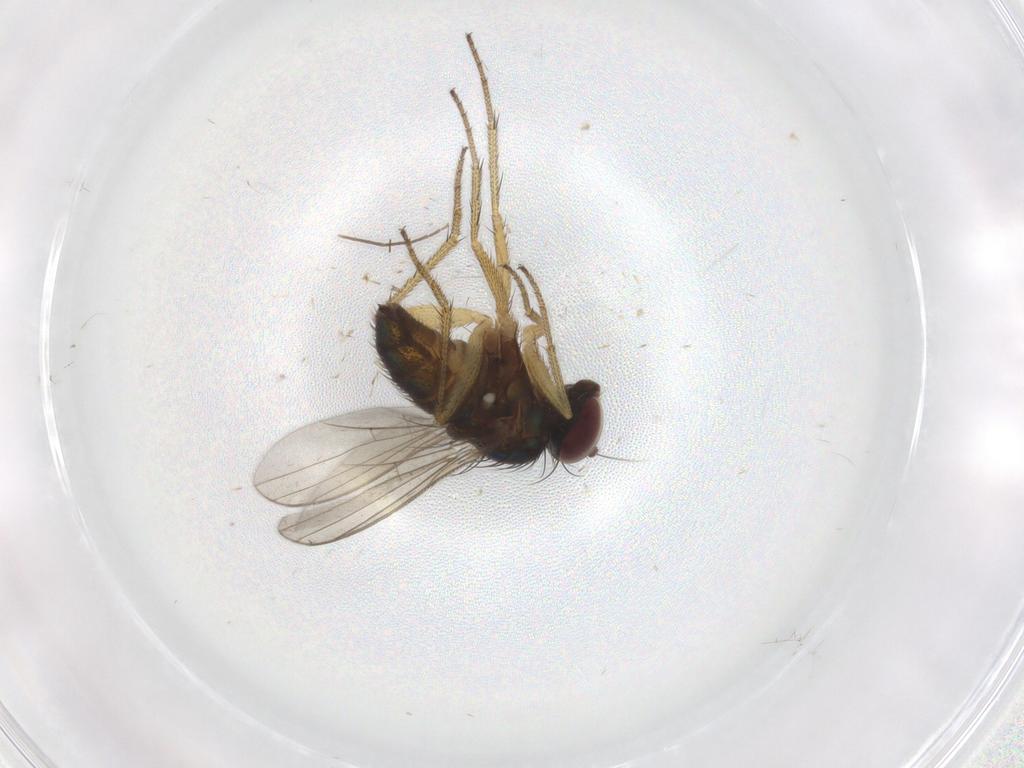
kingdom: Animalia
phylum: Arthropoda
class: Insecta
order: Diptera
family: Dolichopodidae
